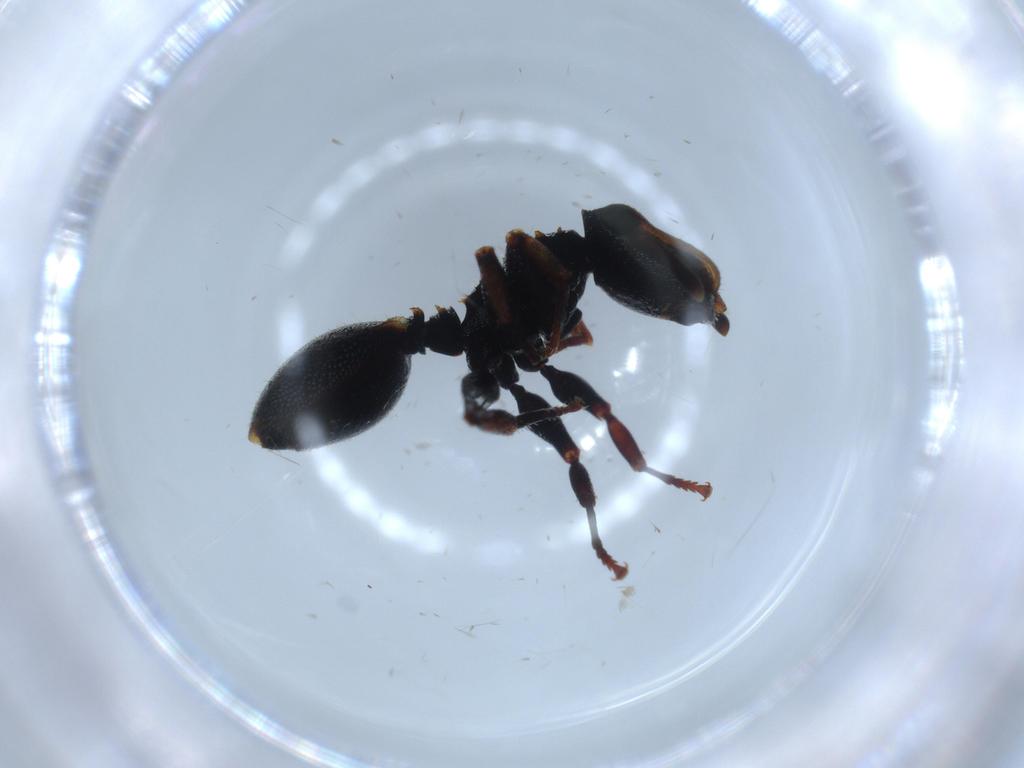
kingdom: Animalia
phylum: Arthropoda
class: Insecta
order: Hymenoptera
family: Formicidae
